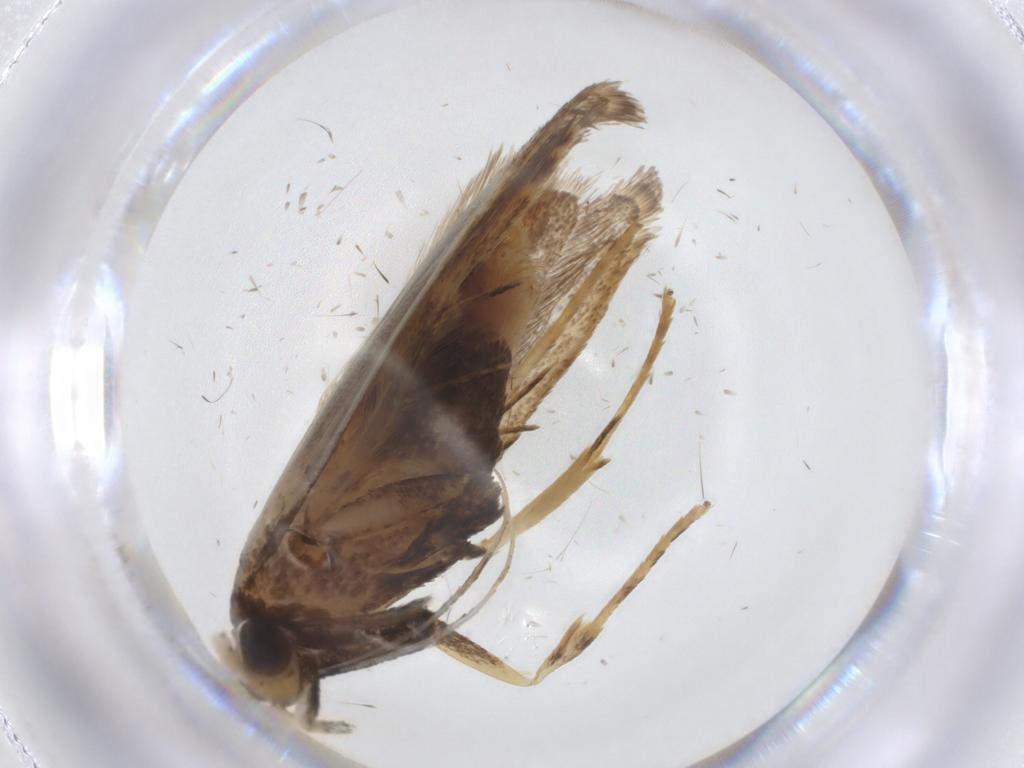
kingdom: Animalia
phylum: Arthropoda
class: Insecta
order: Lepidoptera
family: Lecithoceridae
